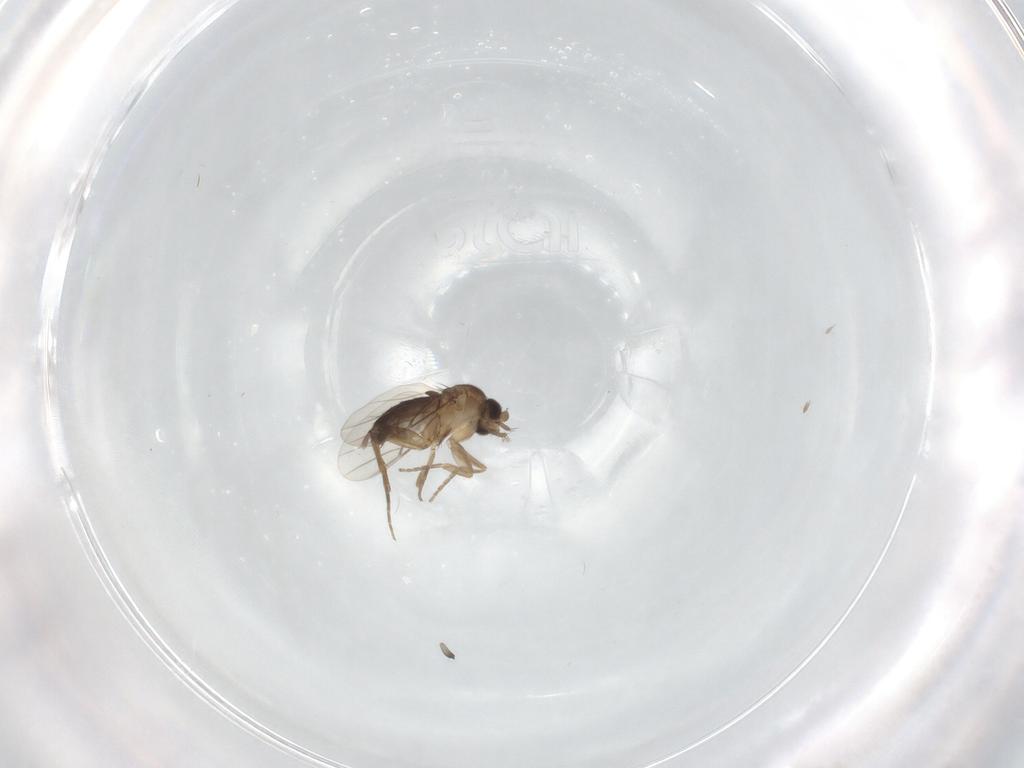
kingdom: Animalia
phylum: Arthropoda
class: Insecta
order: Diptera
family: Phoridae
